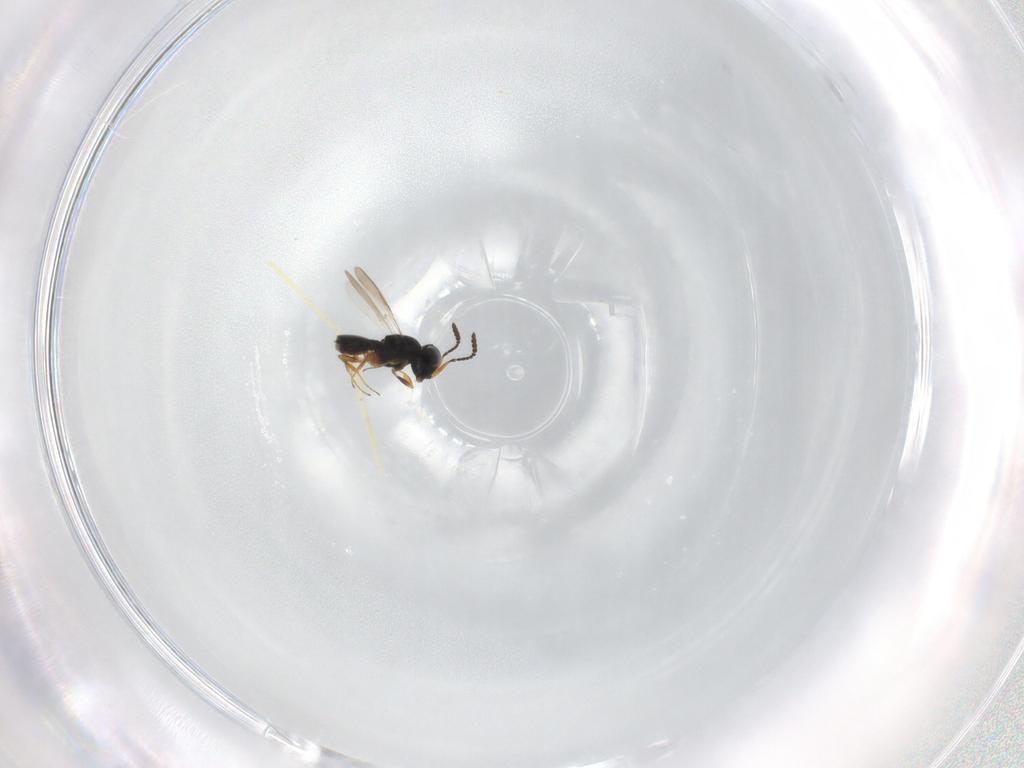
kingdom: Animalia
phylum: Arthropoda
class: Insecta
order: Hymenoptera
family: Scelionidae
